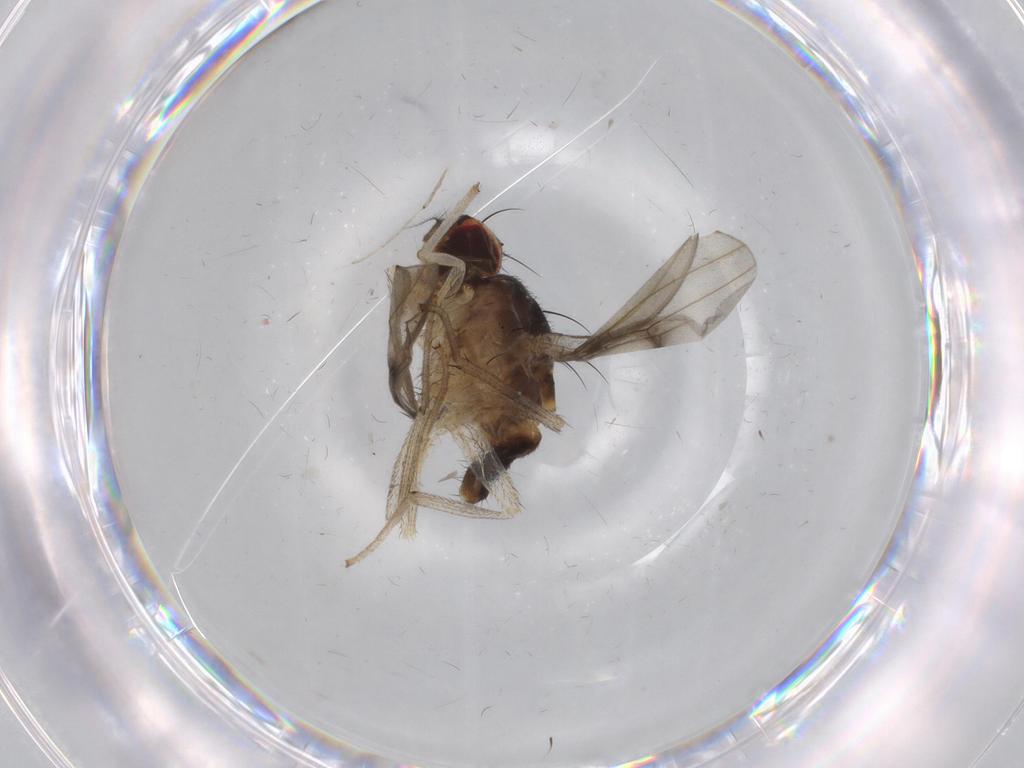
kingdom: Animalia
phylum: Arthropoda
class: Insecta
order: Diptera
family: Chironomidae
